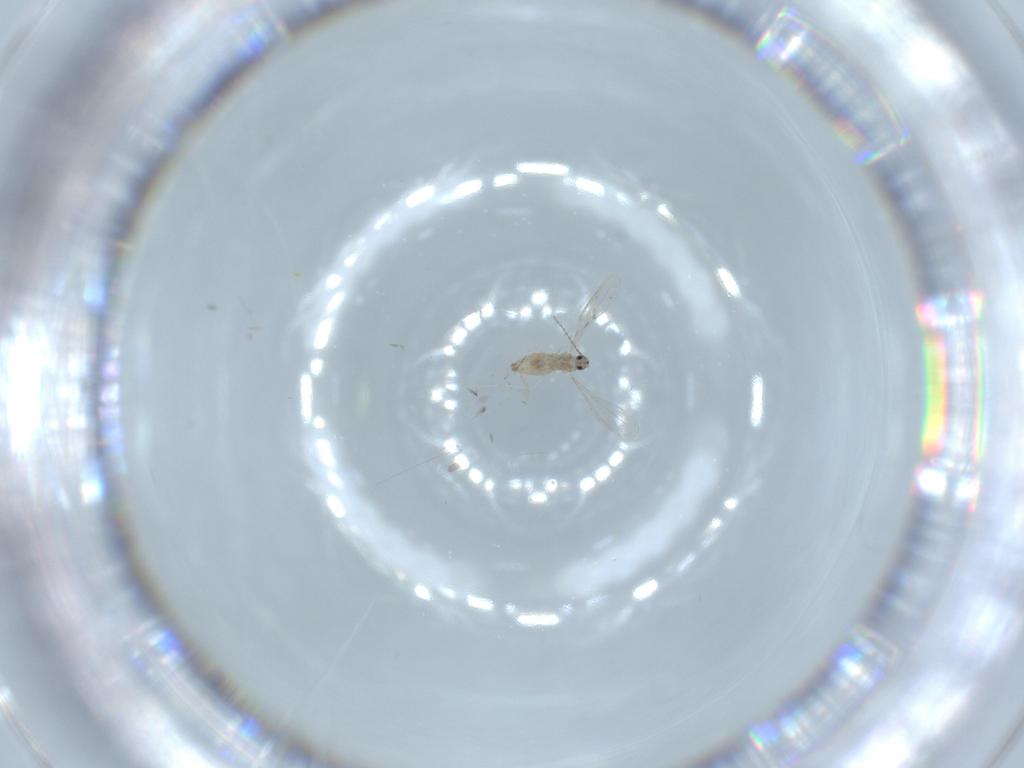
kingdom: Animalia
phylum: Arthropoda
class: Insecta
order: Diptera
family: Cecidomyiidae
